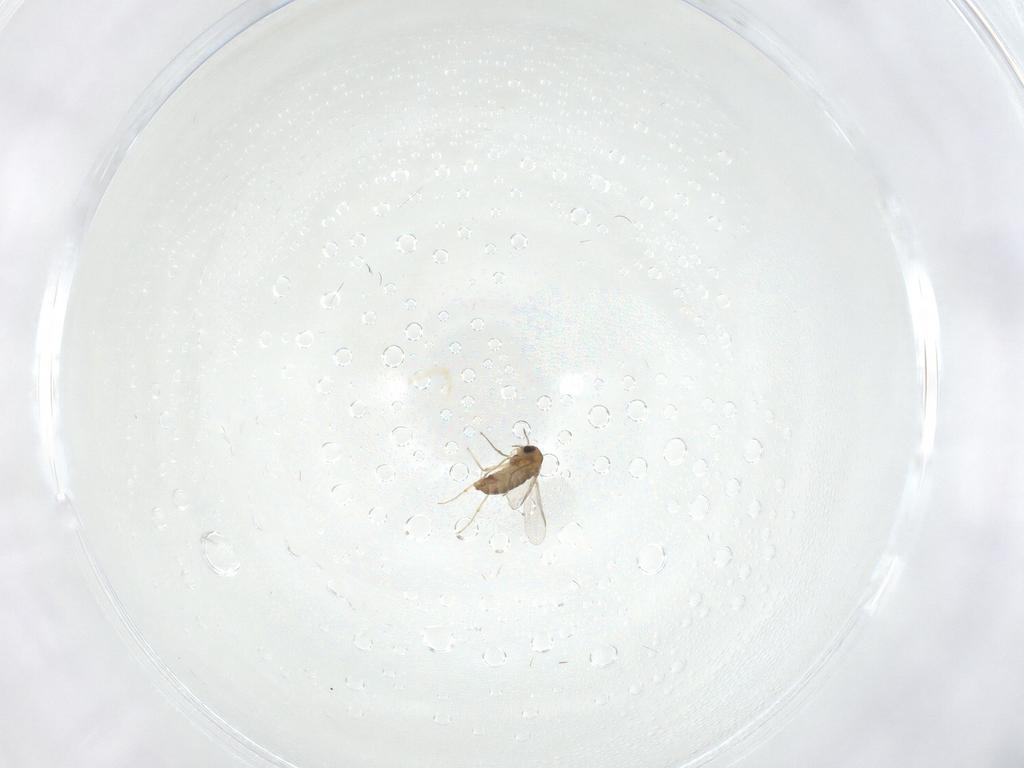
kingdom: Animalia
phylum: Arthropoda
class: Insecta
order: Diptera
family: Chironomidae
